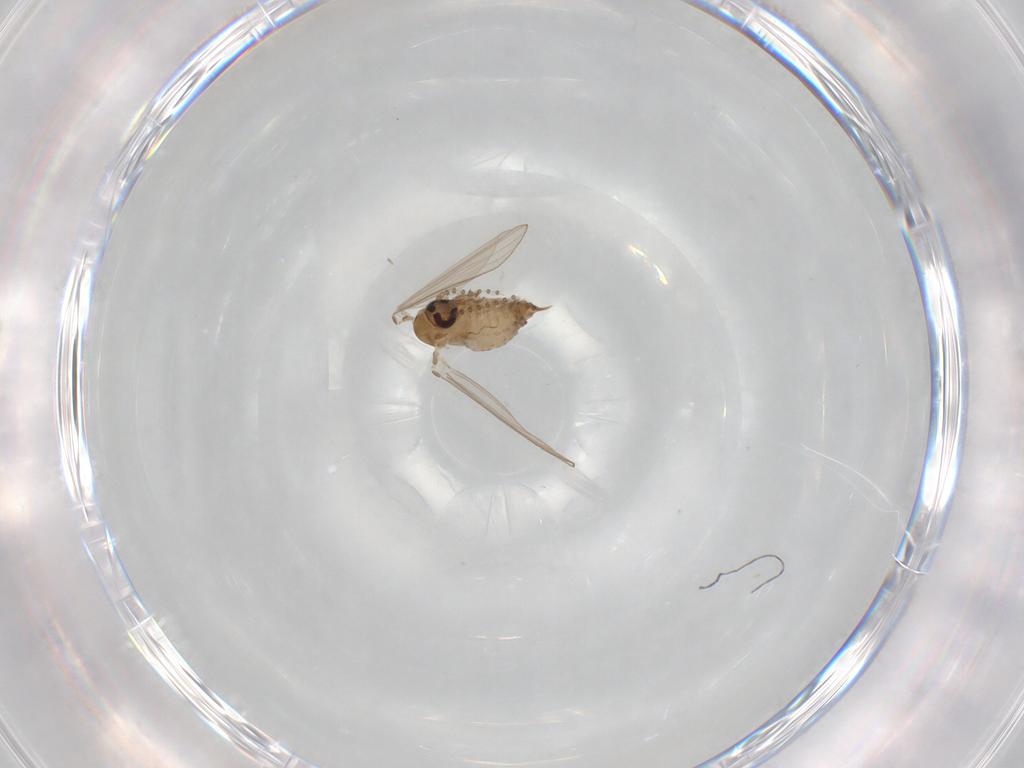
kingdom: Animalia
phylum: Arthropoda
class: Insecta
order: Diptera
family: Psychodidae
